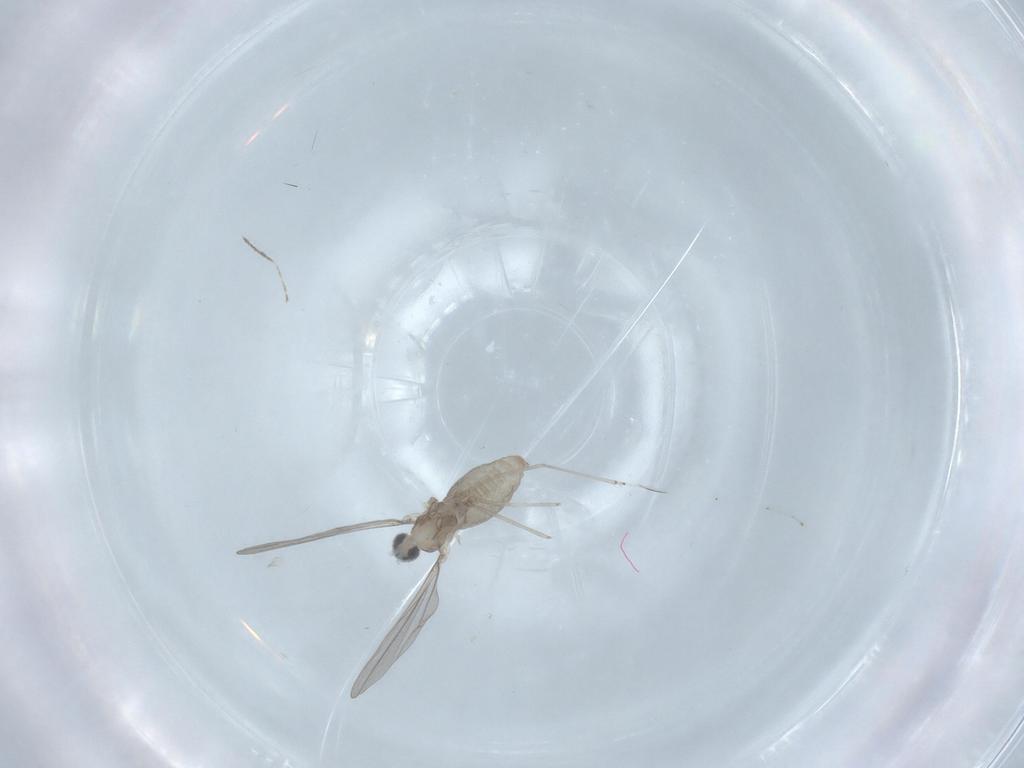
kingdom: Animalia
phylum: Arthropoda
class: Insecta
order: Diptera
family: Cecidomyiidae
